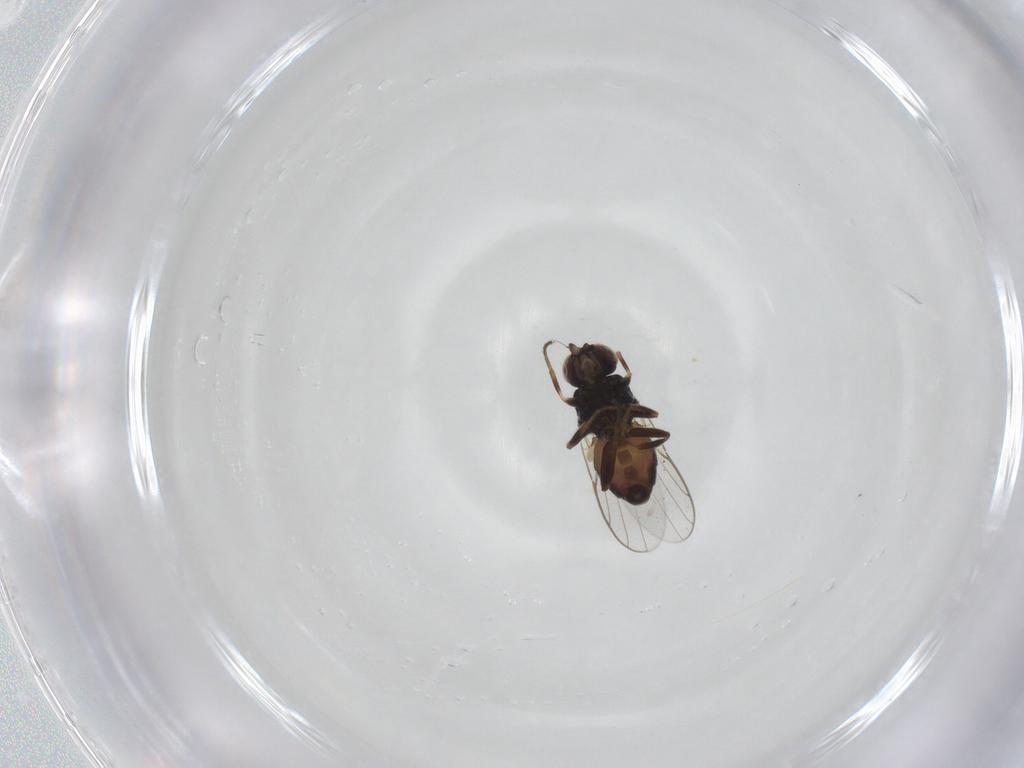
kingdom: Animalia
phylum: Arthropoda
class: Insecta
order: Diptera
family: Chloropidae
